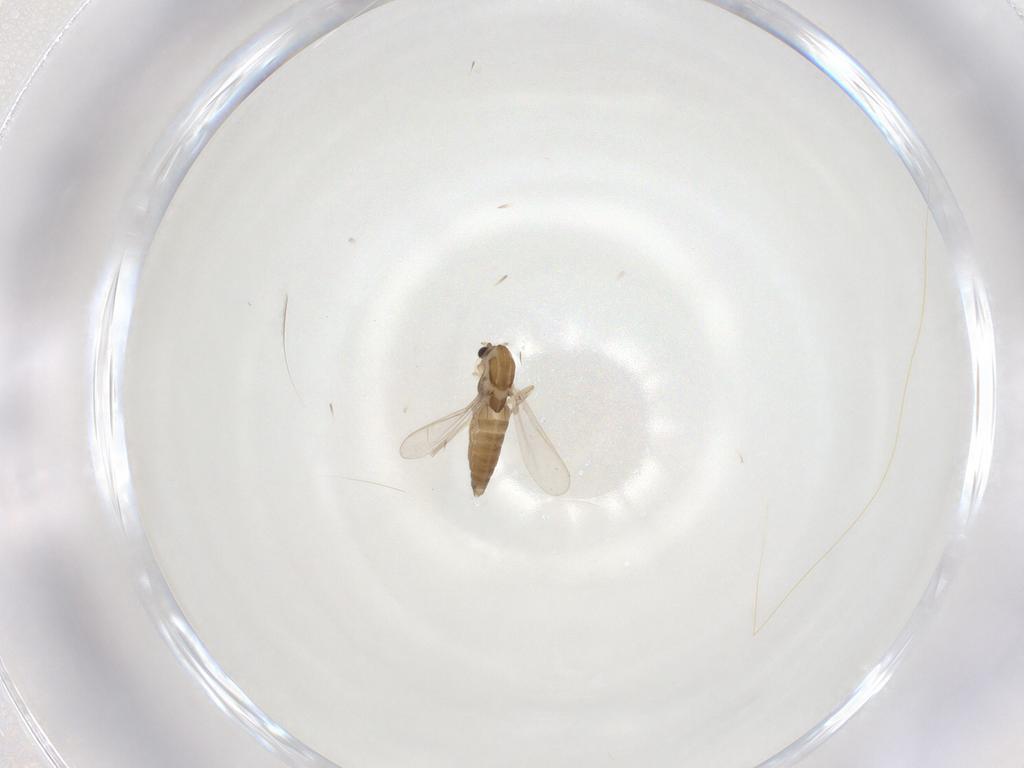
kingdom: Animalia
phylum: Arthropoda
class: Insecta
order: Diptera
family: Chironomidae
